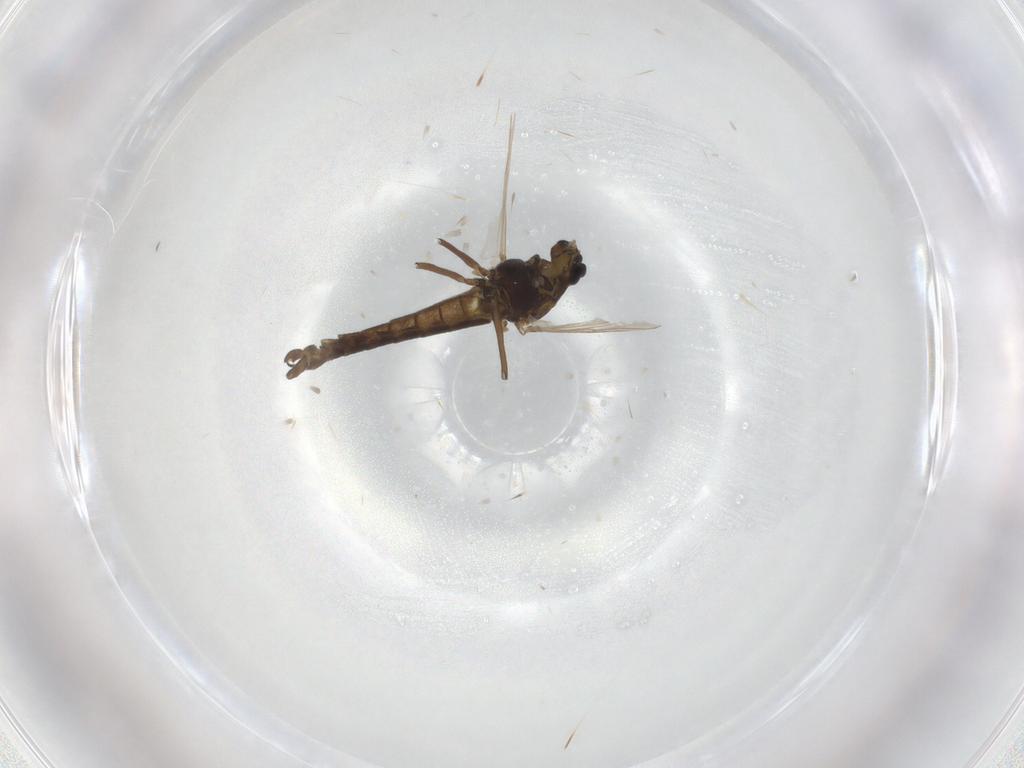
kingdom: Animalia
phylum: Arthropoda
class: Insecta
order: Diptera
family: Chironomidae
